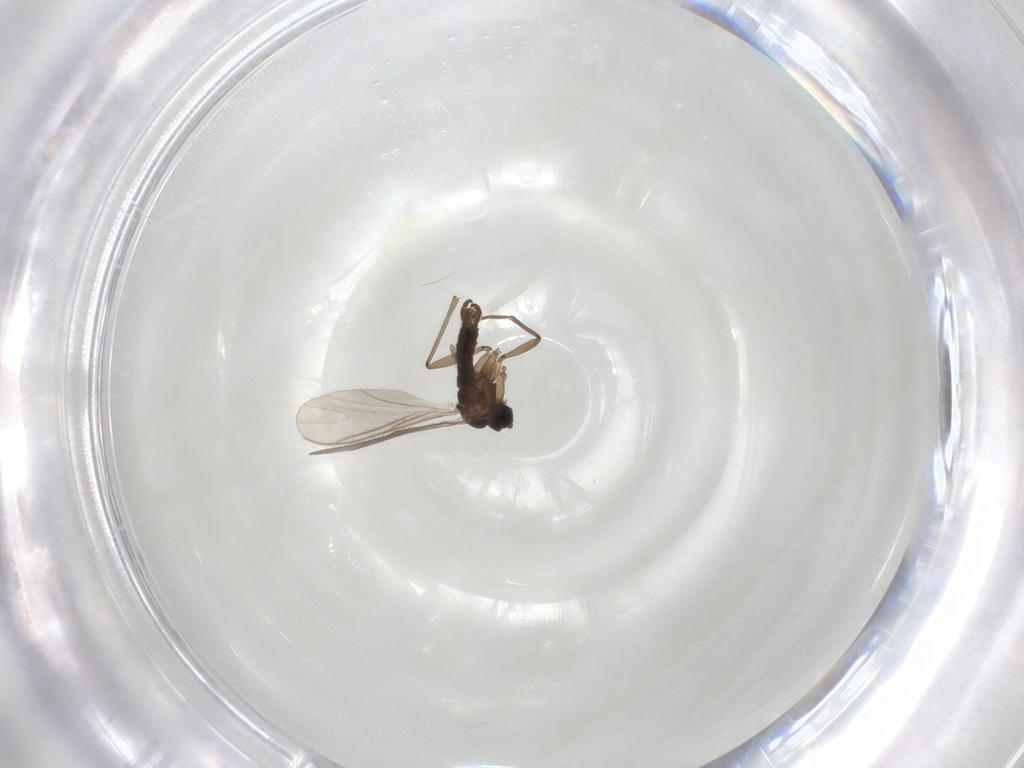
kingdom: Animalia
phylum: Arthropoda
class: Insecta
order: Diptera
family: Sciaridae
